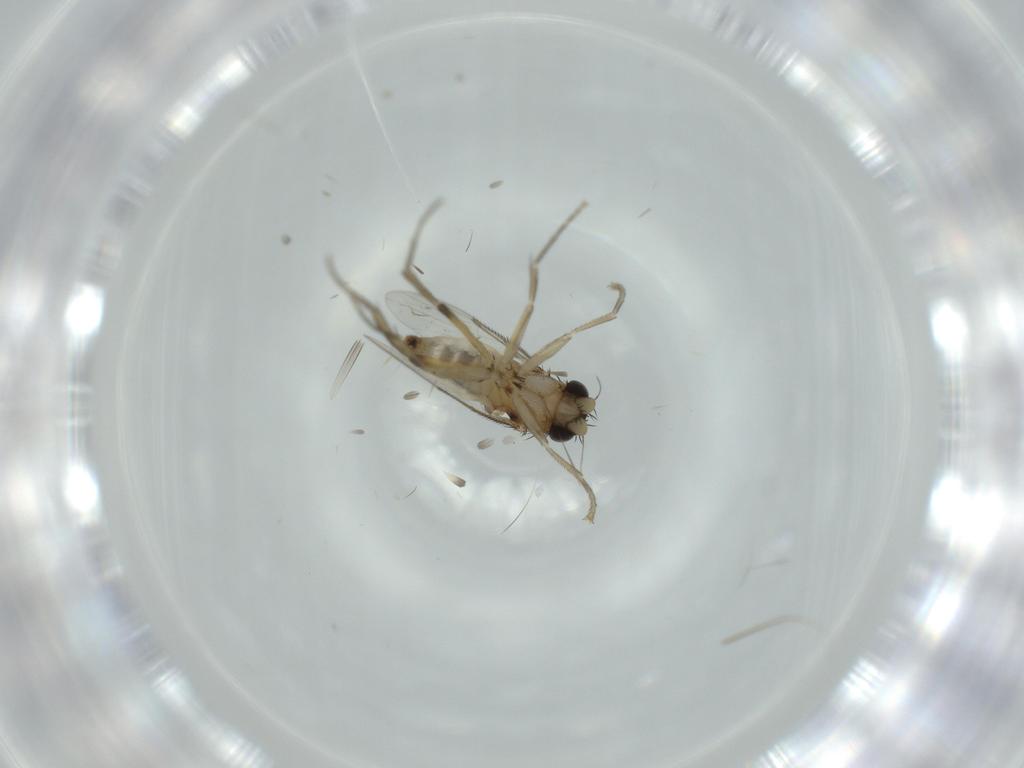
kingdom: Animalia
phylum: Arthropoda
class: Insecta
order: Diptera
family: Phoridae
